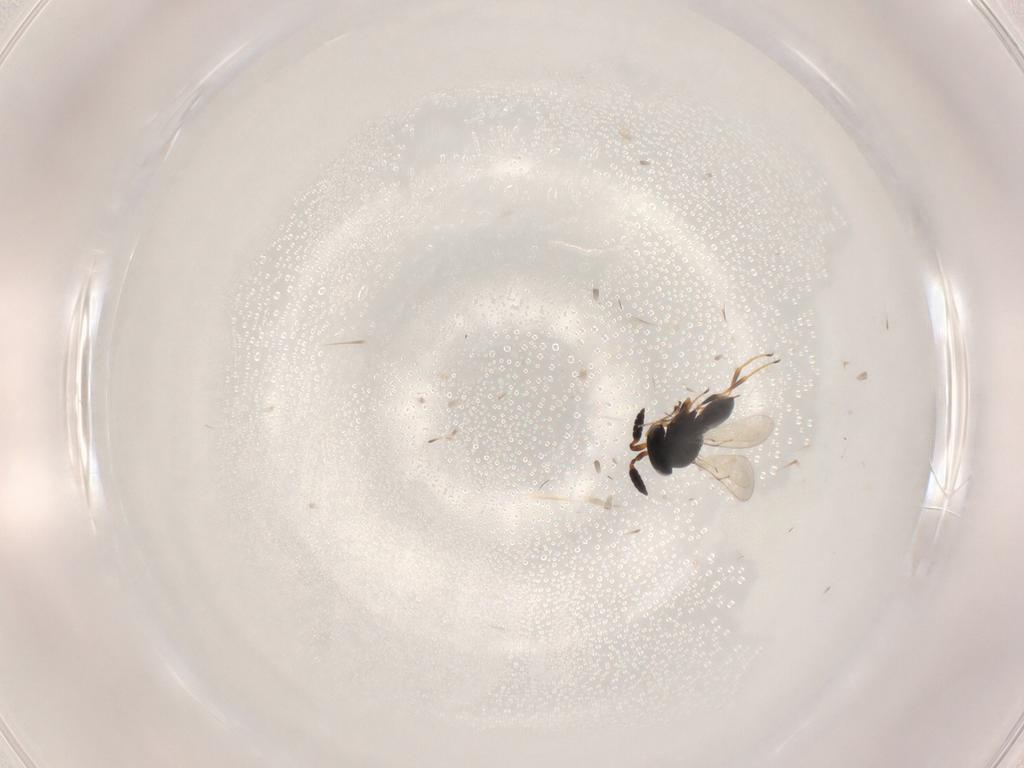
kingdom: Animalia
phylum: Arthropoda
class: Insecta
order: Hymenoptera
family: Scelionidae
